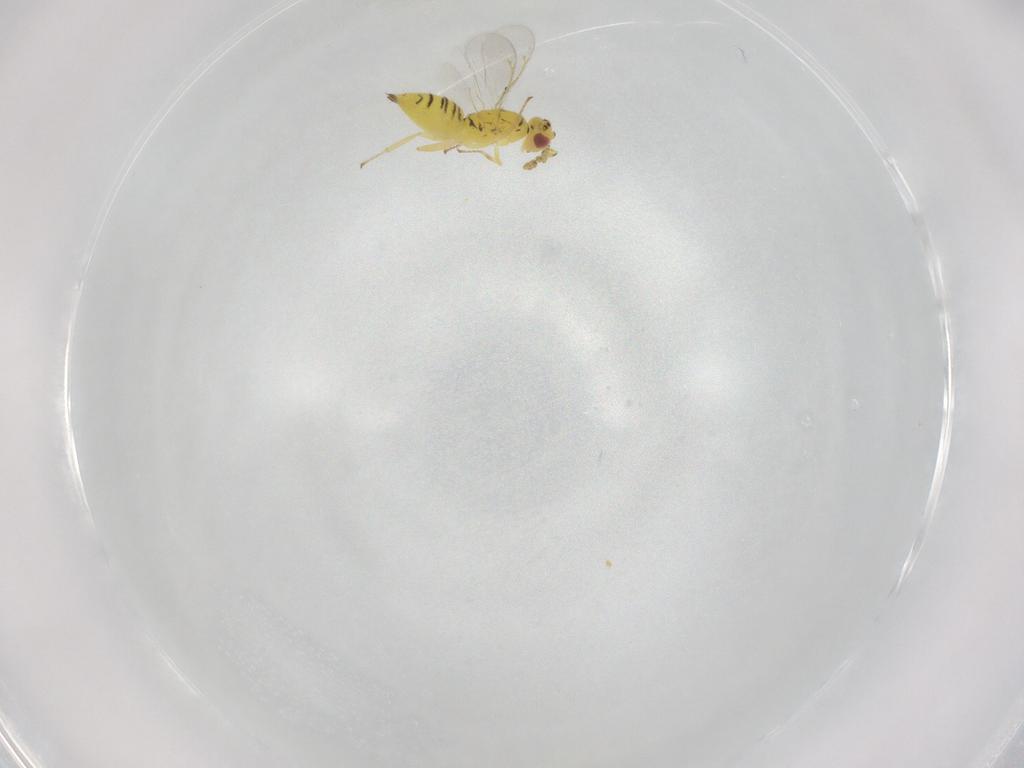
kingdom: Animalia
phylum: Arthropoda
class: Insecta
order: Hymenoptera
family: Eulophidae
